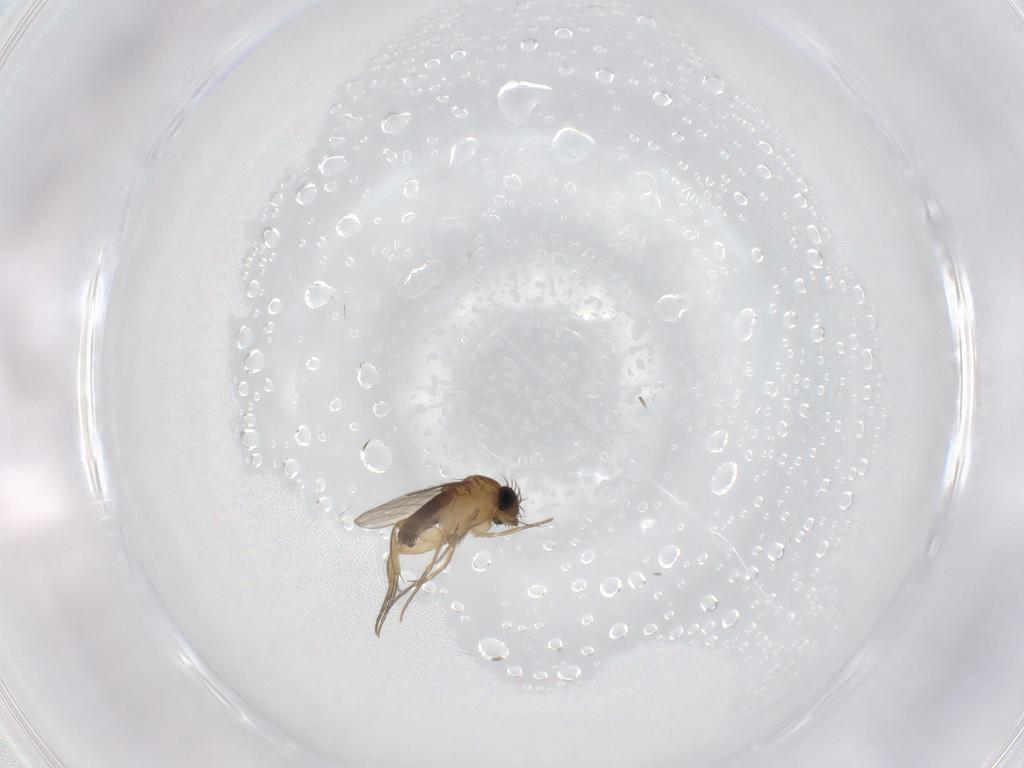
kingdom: Animalia
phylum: Arthropoda
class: Insecta
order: Diptera
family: Phoridae
